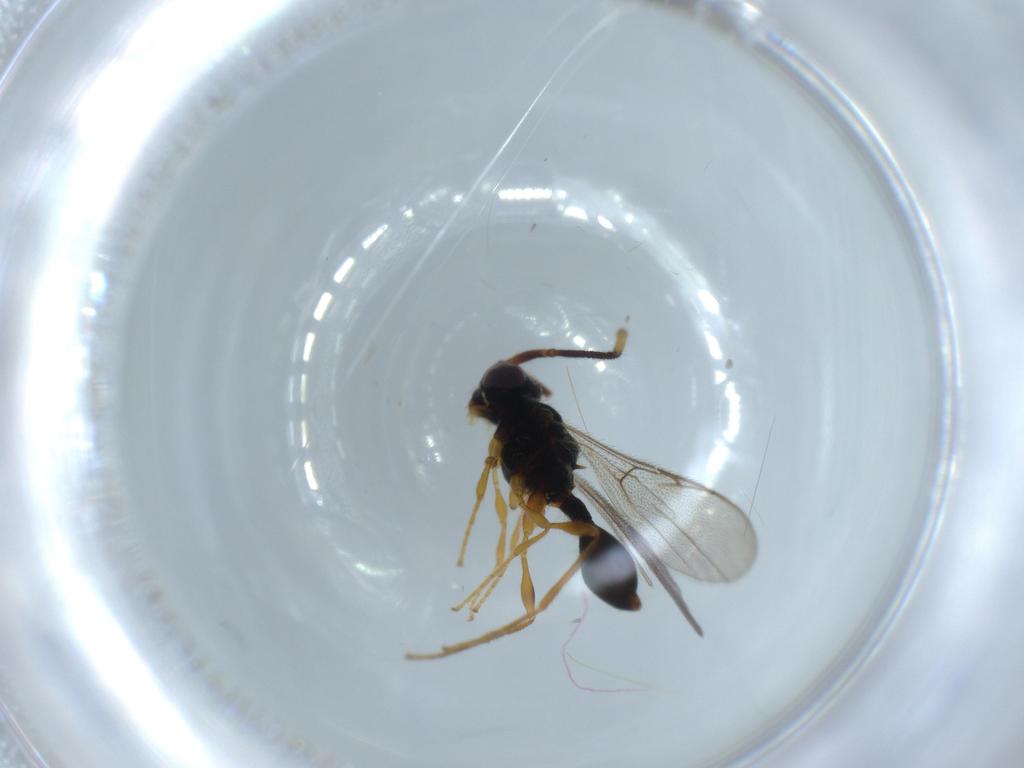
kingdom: Animalia
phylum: Arthropoda
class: Insecta
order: Hymenoptera
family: Diapriidae
